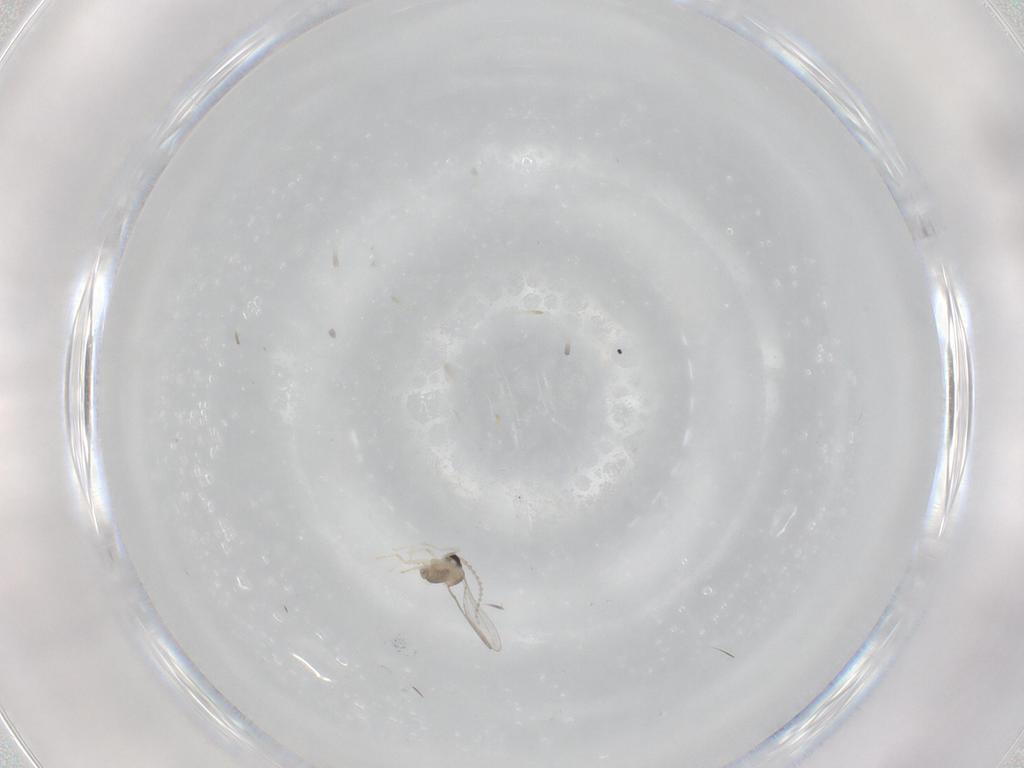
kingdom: Animalia
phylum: Arthropoda
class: Insecta
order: Diptera
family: Cecidomyiidae
